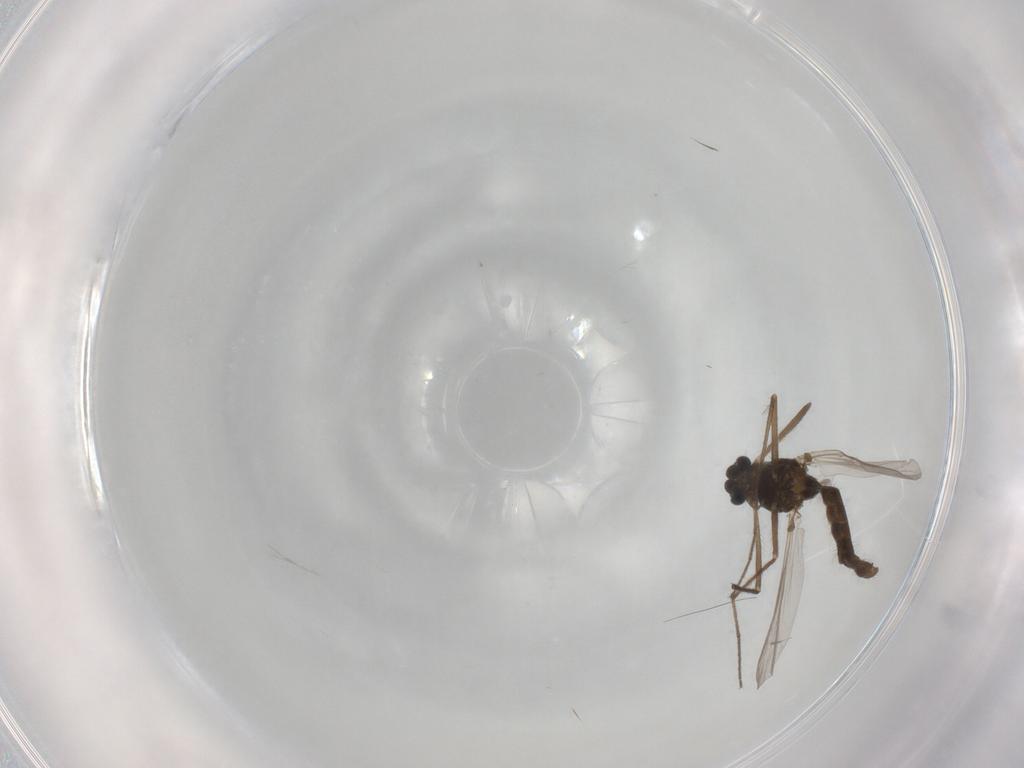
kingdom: Animalia
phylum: Arthropoda
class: Insecta
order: Diptera
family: Chironomidae
